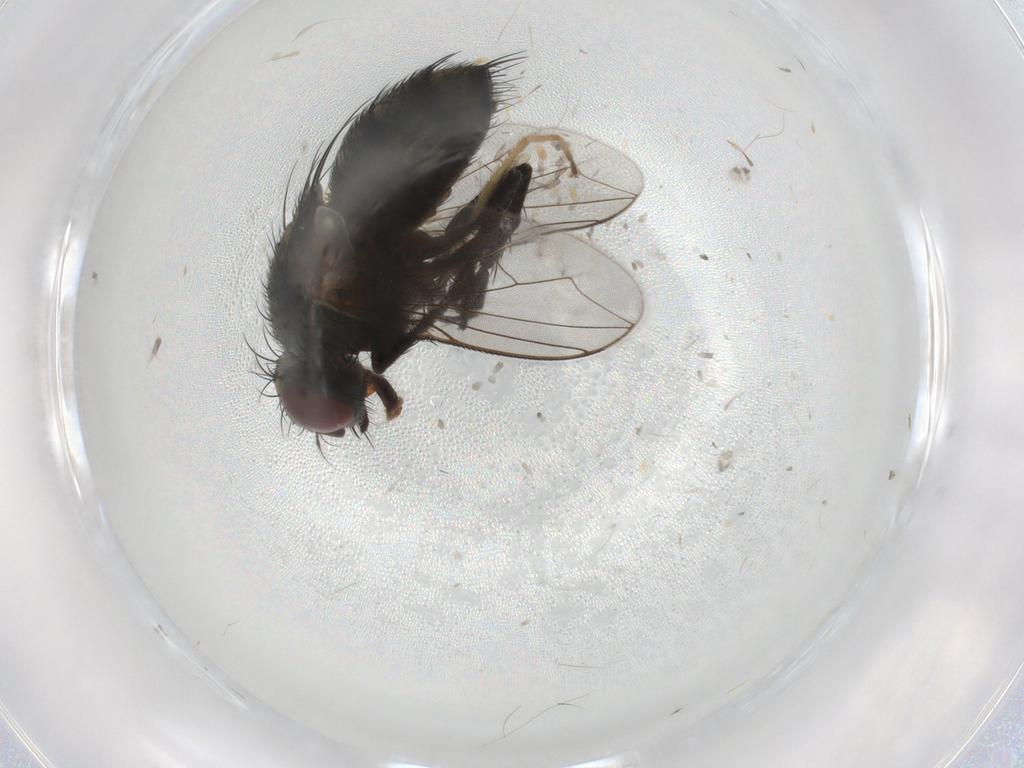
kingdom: Animalia
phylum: Arthropoda
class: Insecta
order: Diptera
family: Sarcophagidae
